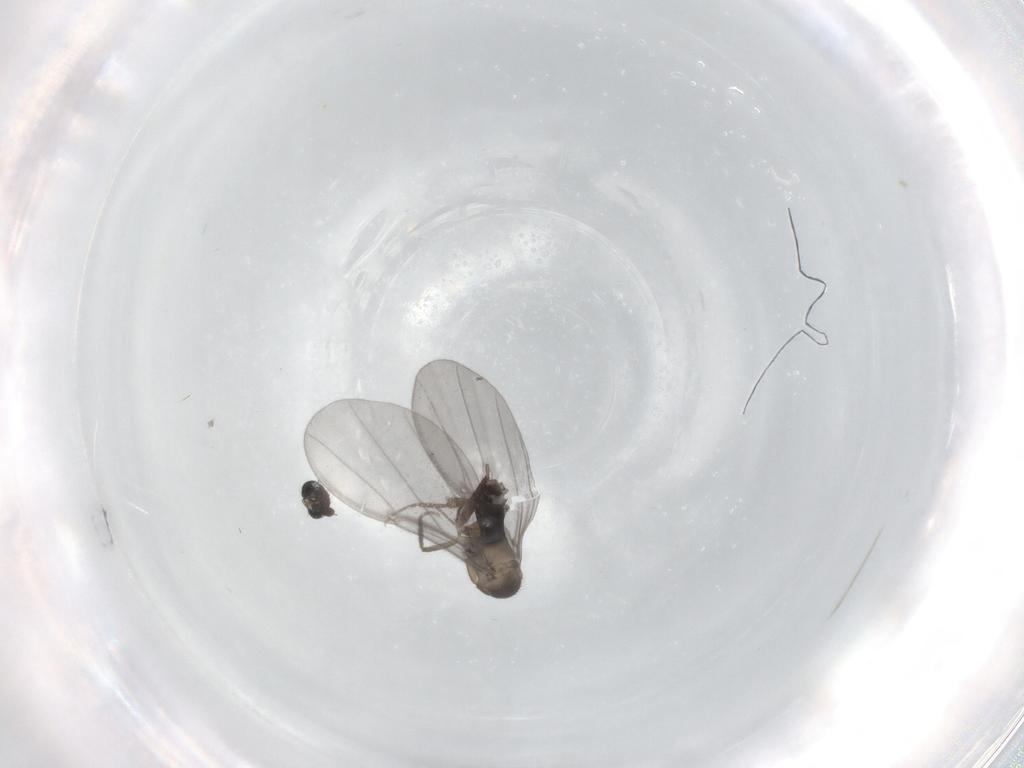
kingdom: Animalia
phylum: Arthropoda
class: Insecta
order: Diptera
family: Phoridae
